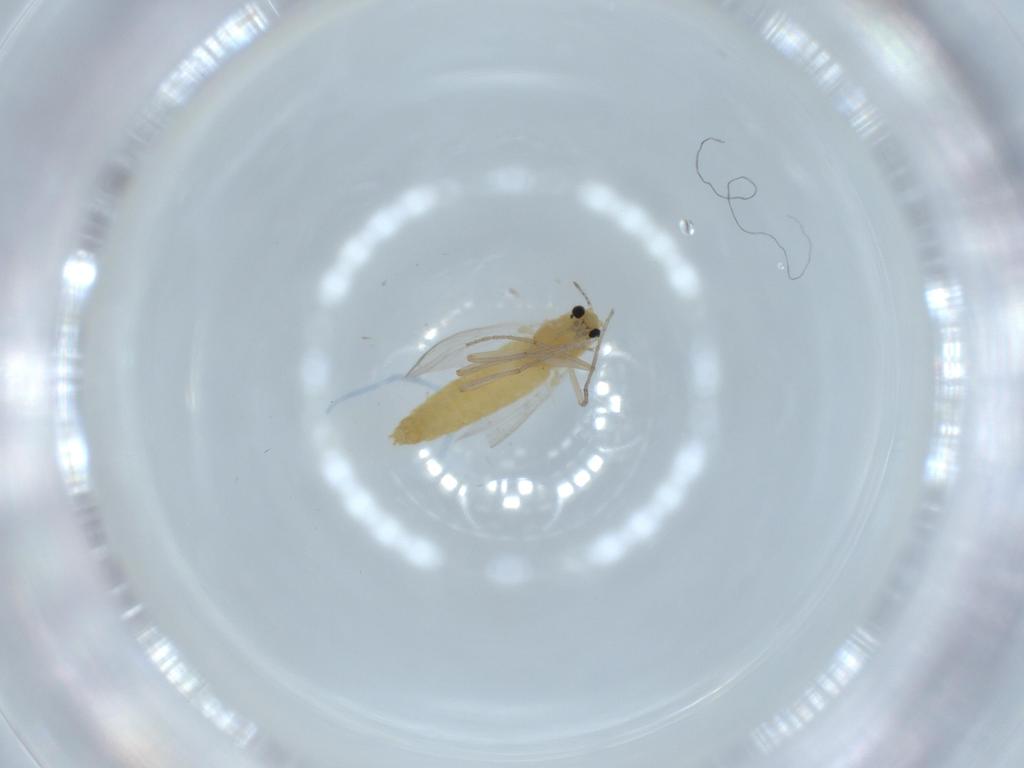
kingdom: Animalia
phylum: Arthropoda
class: Insecta
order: Diptera
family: Chironomidae
